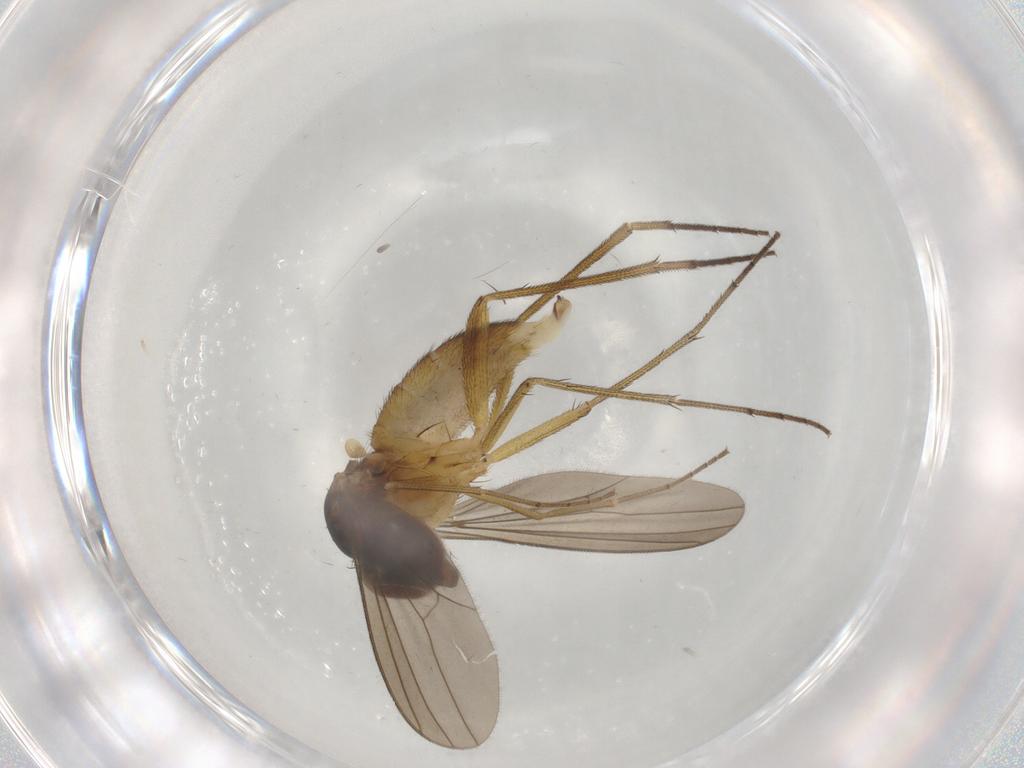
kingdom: Animalia
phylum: Arthropoda
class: Insecta
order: Diptera
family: Dolichopodidae
